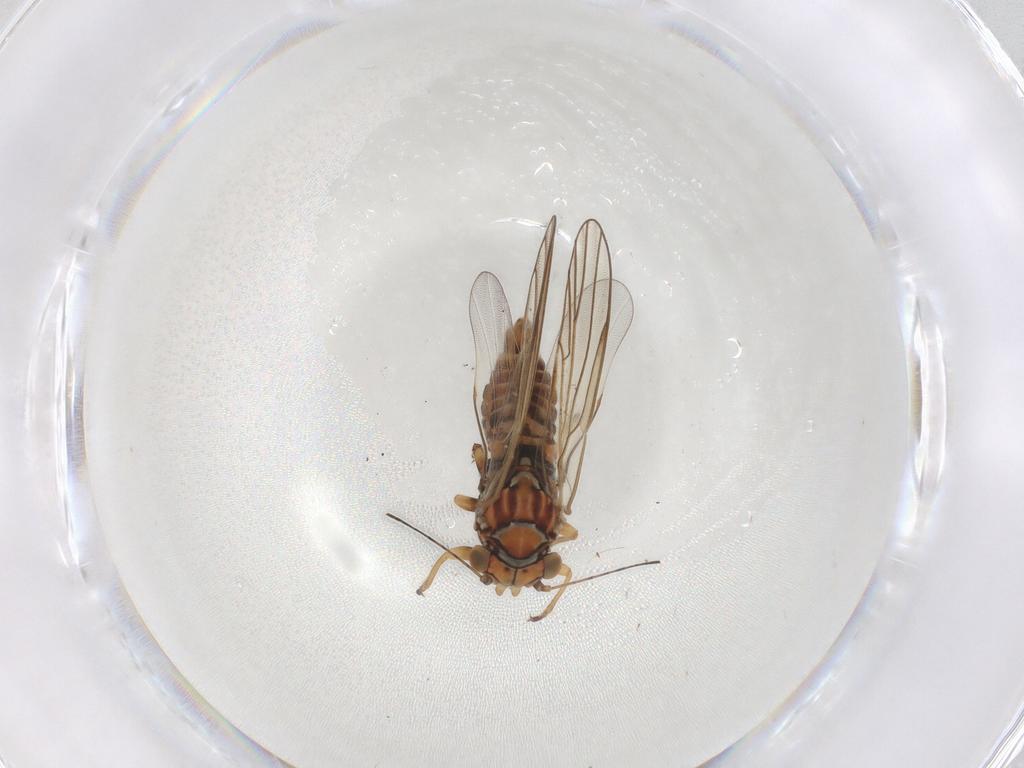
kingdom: Animalia
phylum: Arthropoda
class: Insecta
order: Hemiptera
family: Psyllidae
